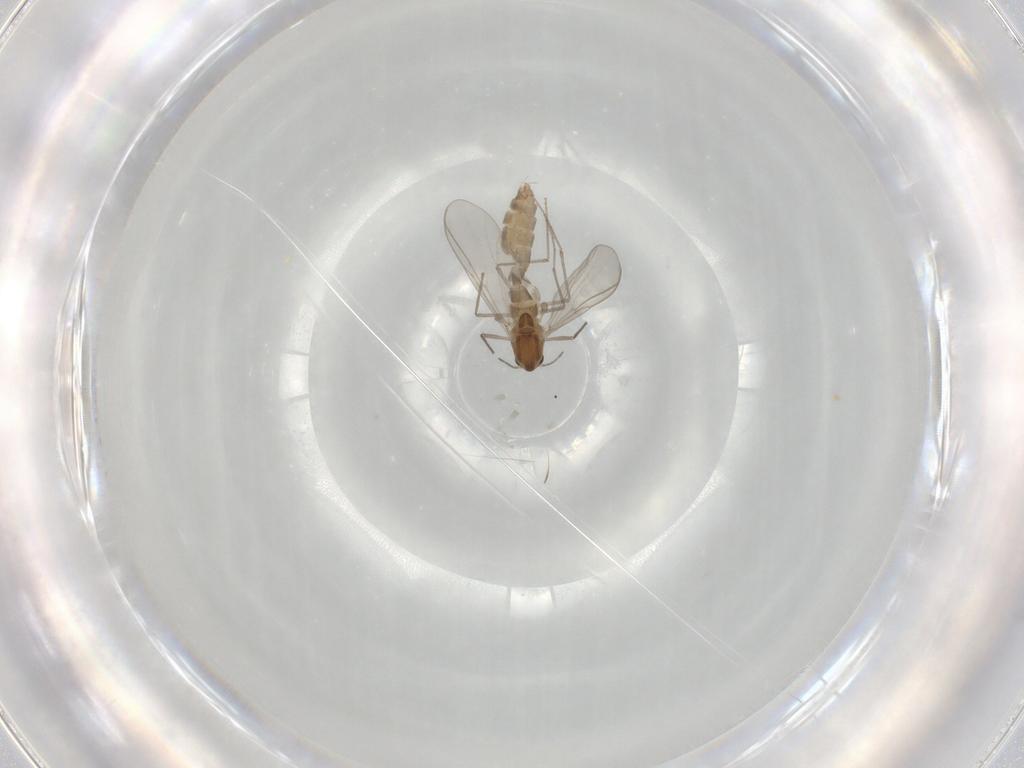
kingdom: Animalia
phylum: Arthropoda
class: Insecta
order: Diptera
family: Chironomidae
